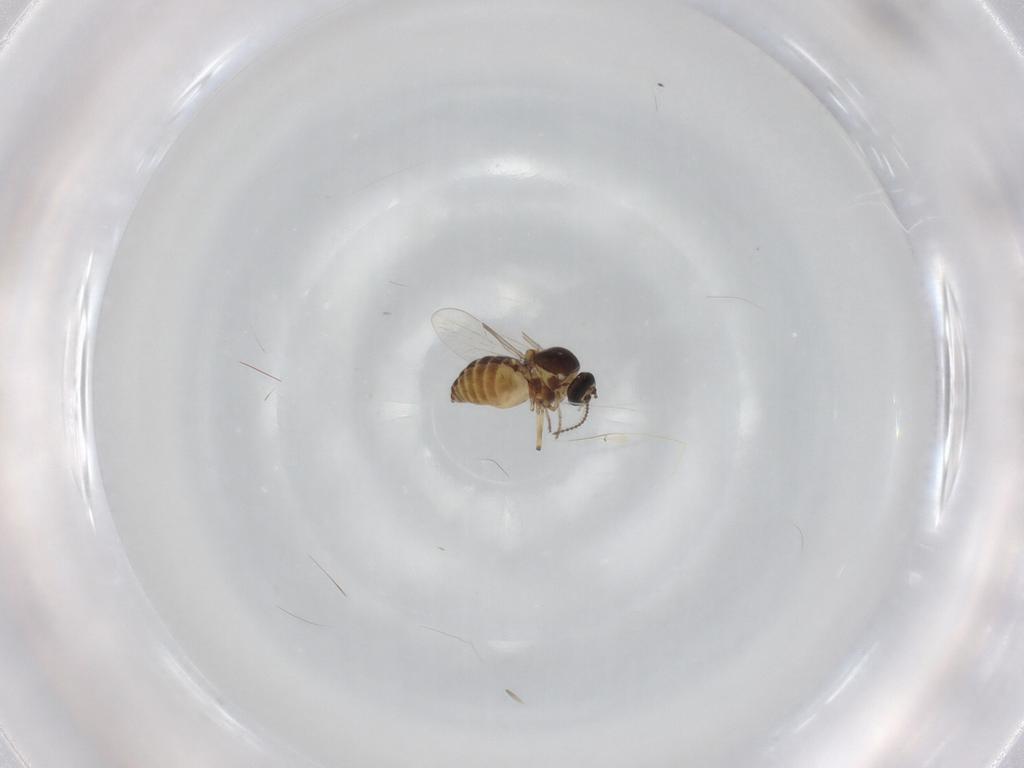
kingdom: Animalia
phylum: Arthropoda
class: Insecta
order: Diptera
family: Ceratopogonidae
